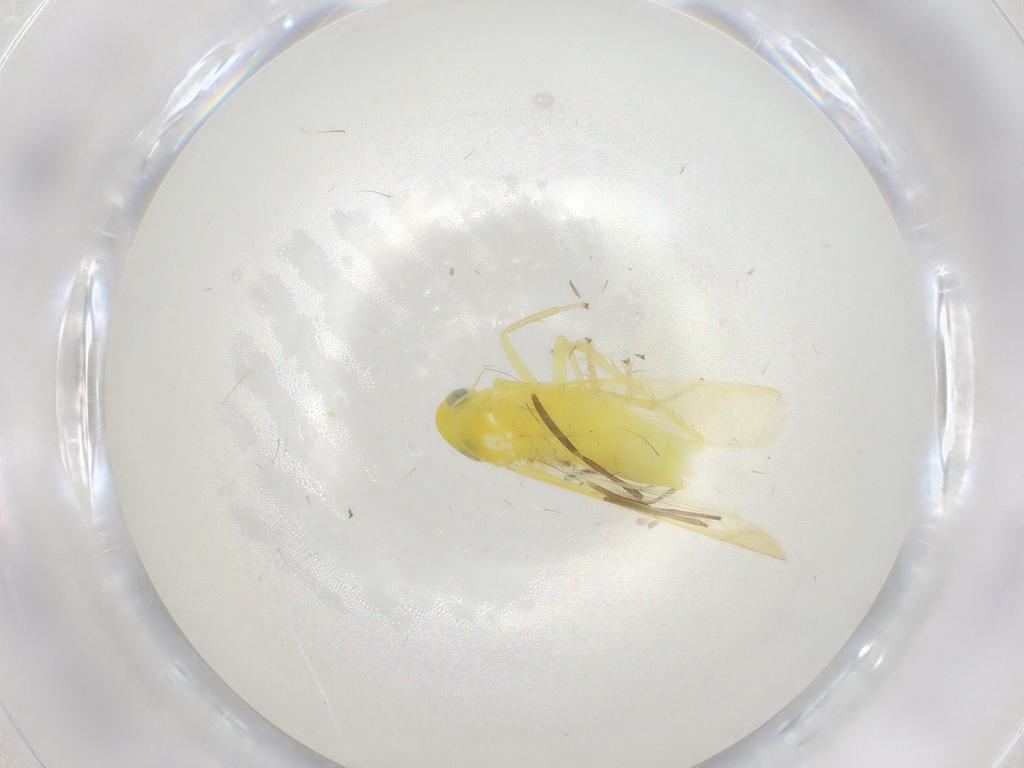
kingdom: Animalia
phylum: Arthropoda
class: Insecta
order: Hemiptera
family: Cicadellidae
